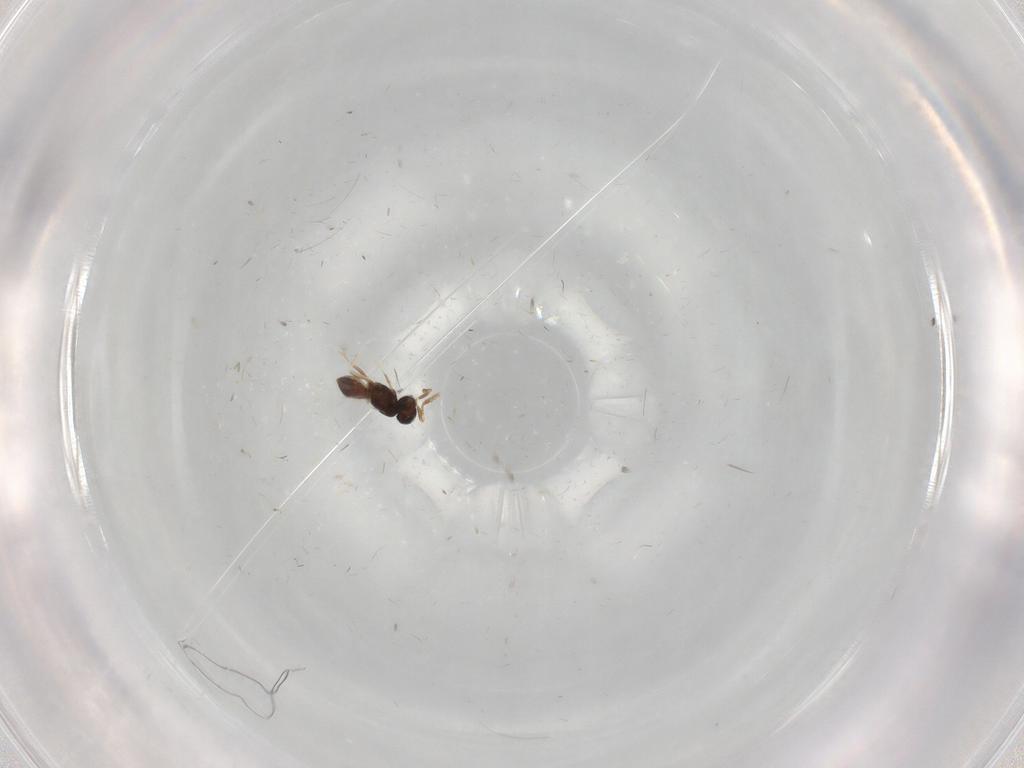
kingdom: Animalia
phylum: Arthropoda
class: Insecta
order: Hymenoptera
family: Scelionidae
